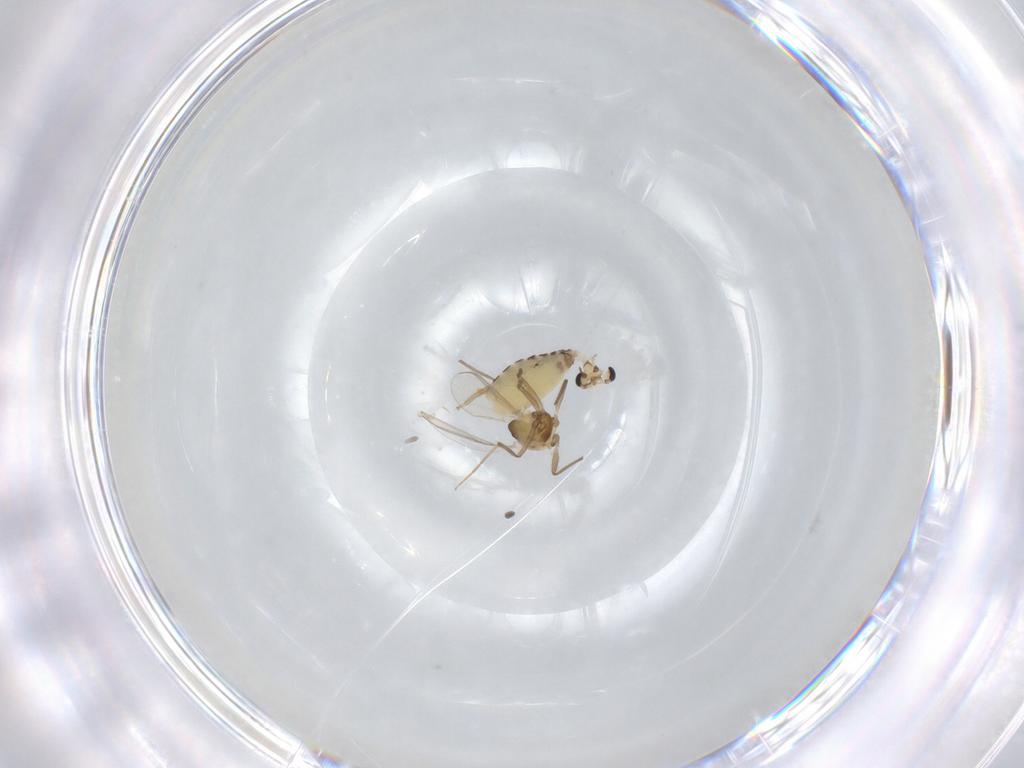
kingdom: Animalia
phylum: Arthropoda
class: Insecta
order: Diptera
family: Chironomidae
